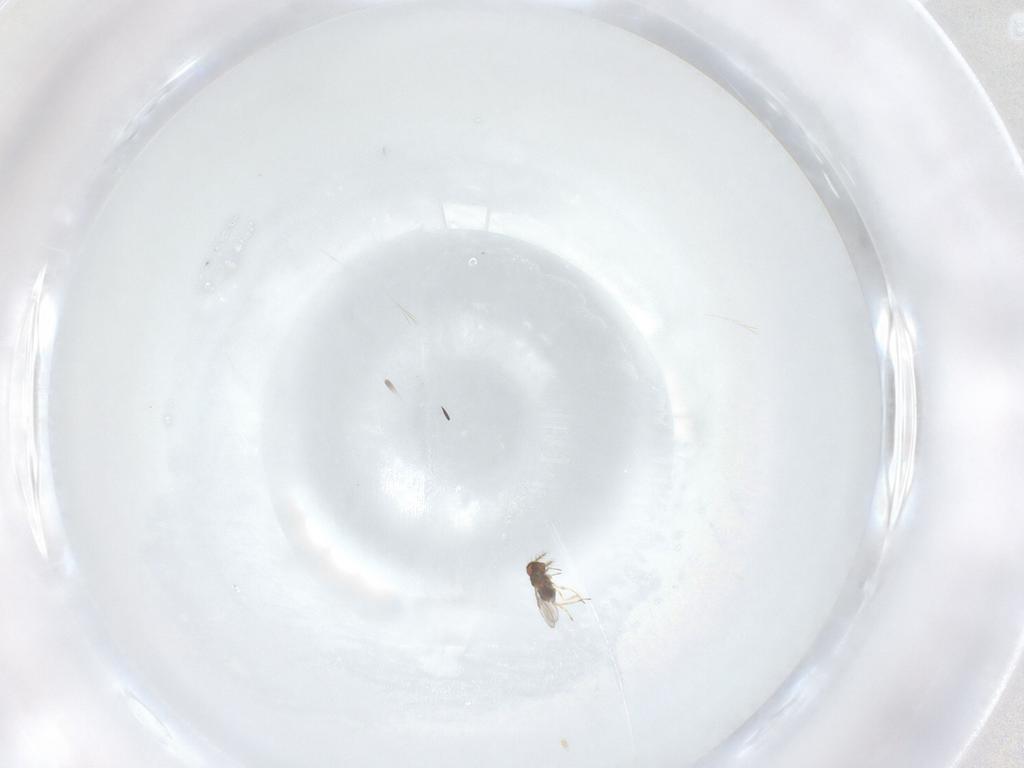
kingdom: Animalia
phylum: Arthropoda
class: Insecta
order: Hymenoptera
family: Trichogrammatidae
